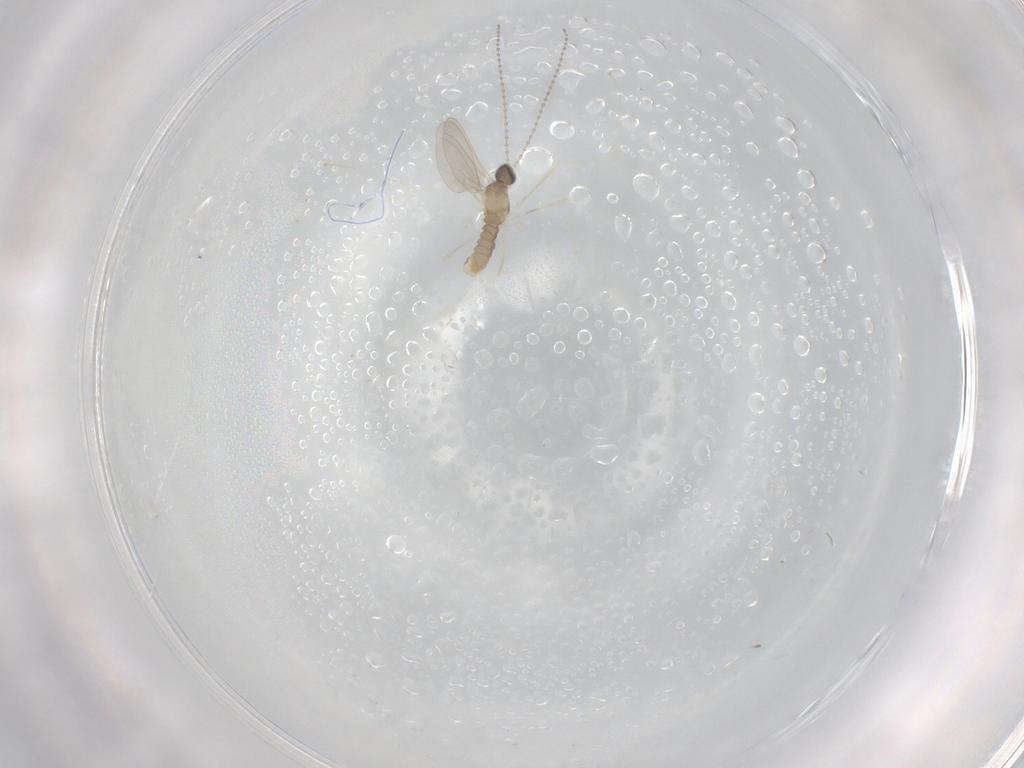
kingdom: Animalia
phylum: Arthropoda
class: Insecta
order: Diptera
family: Cecidomyiidae
